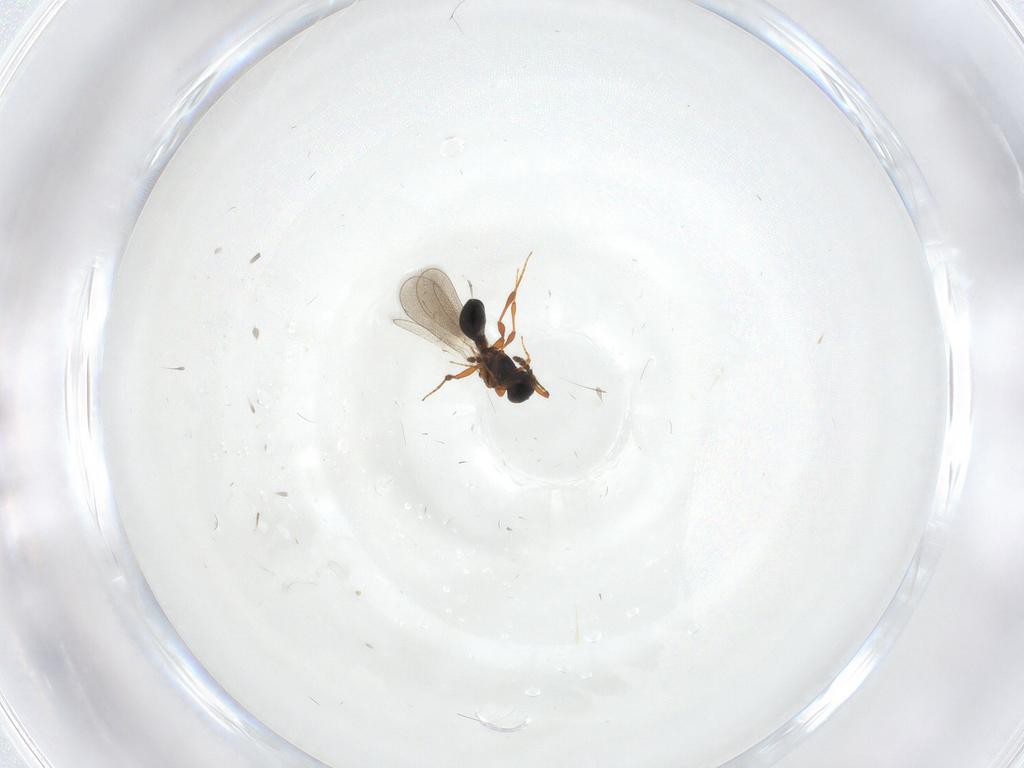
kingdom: Animalia
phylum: Arthropoda
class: Insecta
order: Hymenoptera
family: Platygastridae
